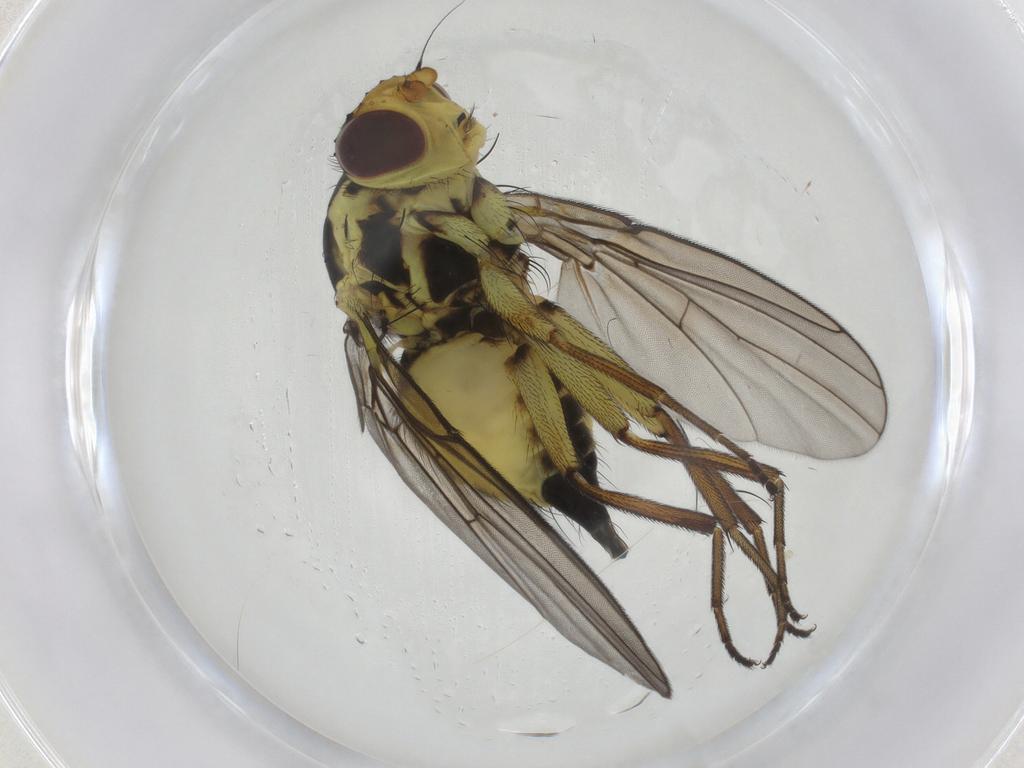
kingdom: Animalia
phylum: Arthropoda
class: Insecta
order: Diptera
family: Agromyzidae
